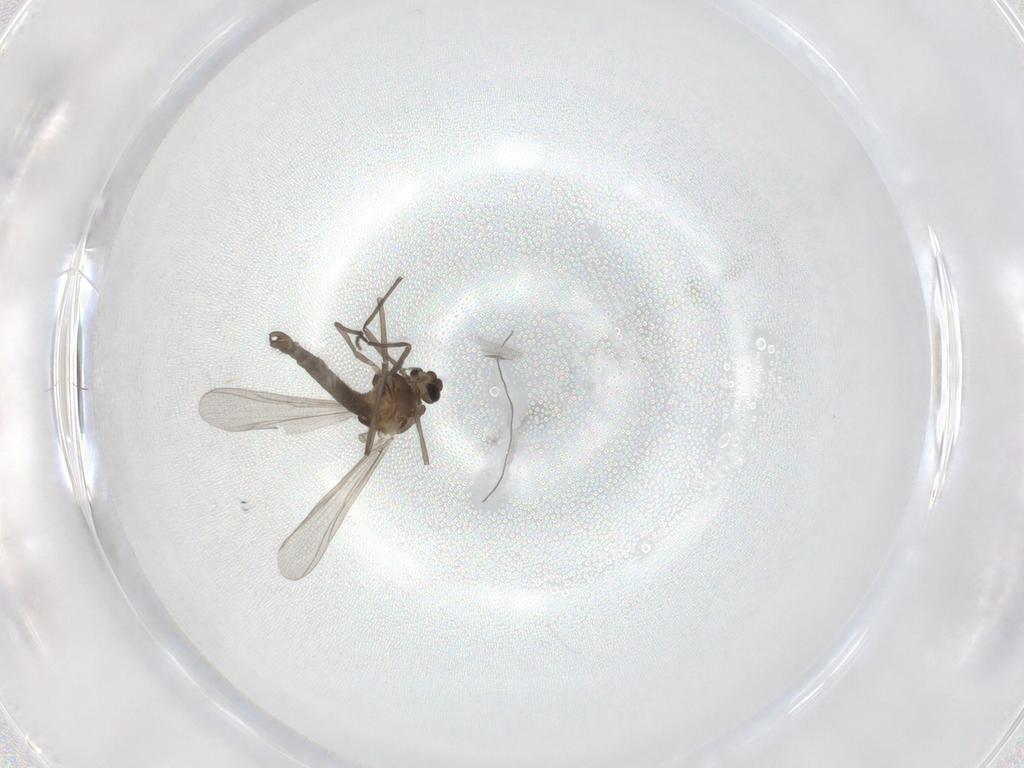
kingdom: Animalia
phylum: Arthropoda
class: Insecta
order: Diptera
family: Chironomidae
